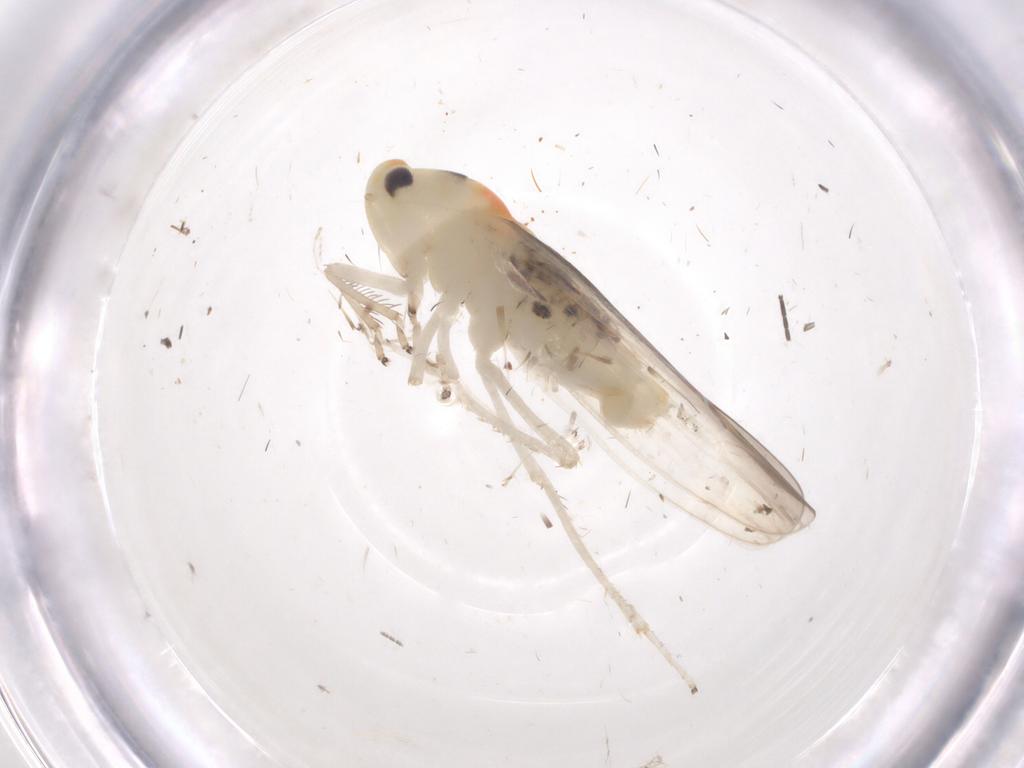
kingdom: Animalia
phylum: Arthropoda
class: Insecta
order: Hemiptera
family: Cicadellidae
